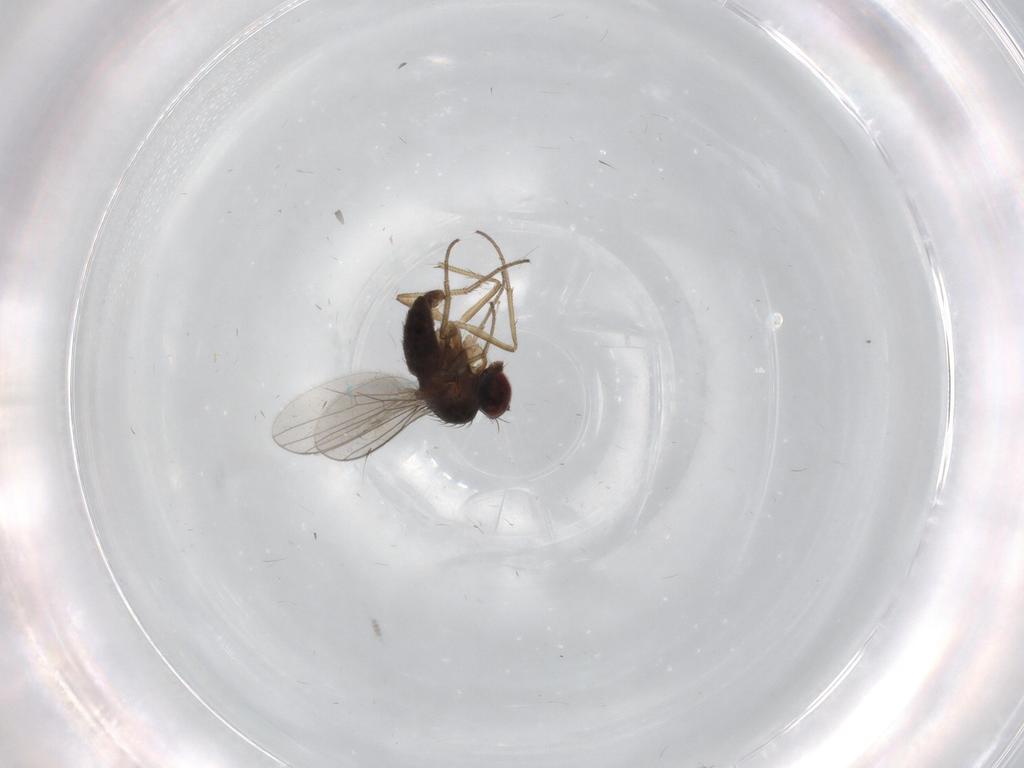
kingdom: Animalia
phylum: Arthropoda
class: Insecta
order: Diptera
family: Dolichopodidae
